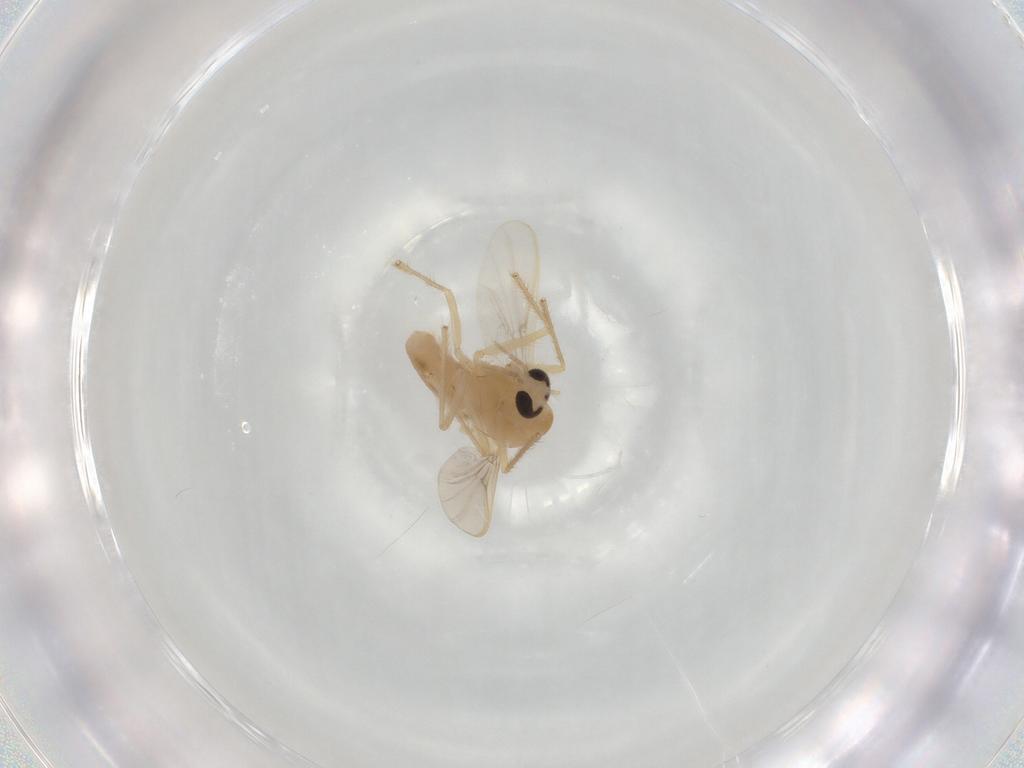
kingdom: Animalia
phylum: Arthropoda
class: Insecta
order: Diptera
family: Chironomidae
